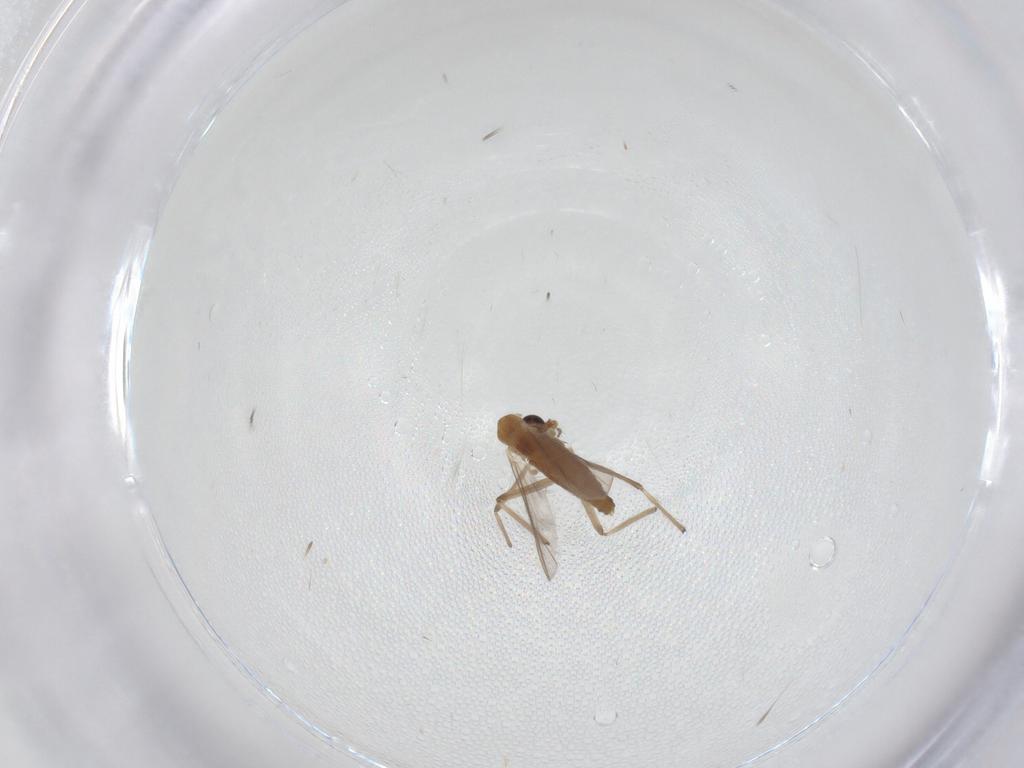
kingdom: Animalia
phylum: Arthropoda
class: Insecta
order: Diptera
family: Chironomidae
